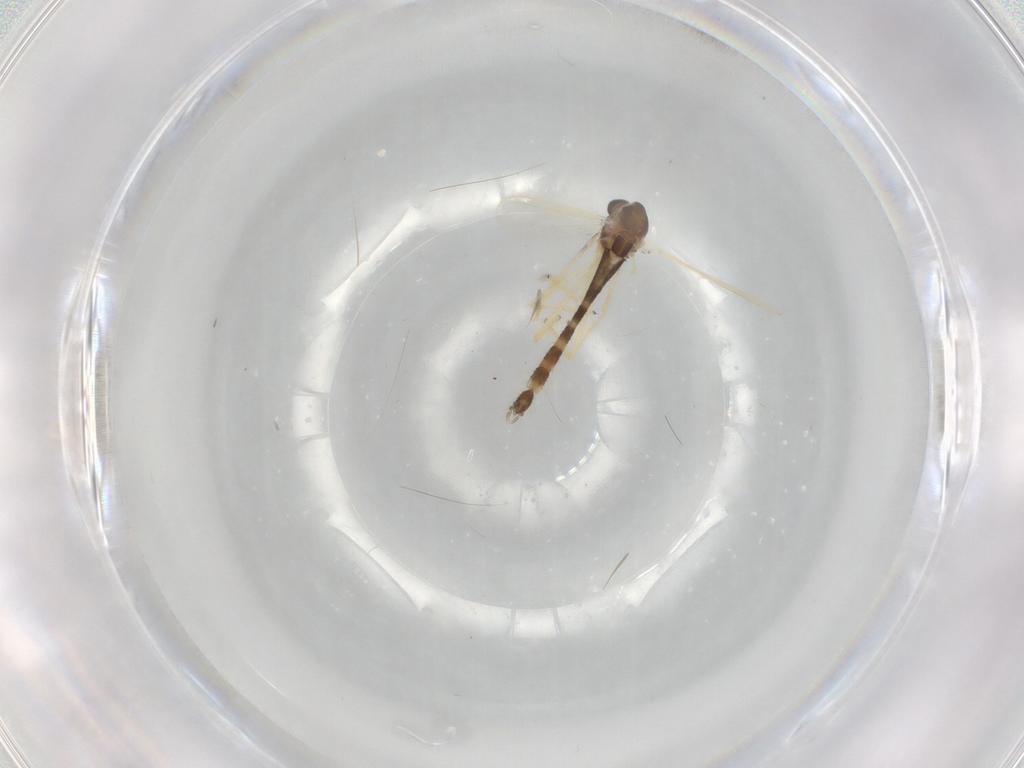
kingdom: Animalia
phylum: Arthropoda
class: Insecta
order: Diptera
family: Chironomidae
